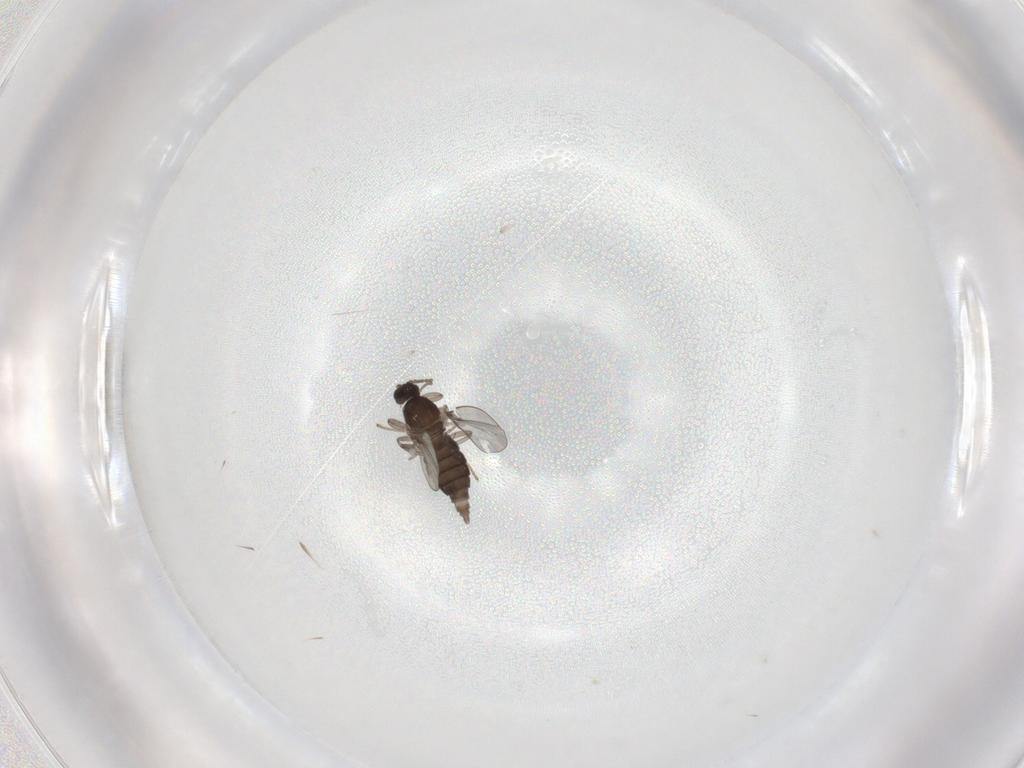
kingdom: Animalia
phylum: Arthropoda
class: Insecta
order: Diptera
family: Cecidomyiidae
